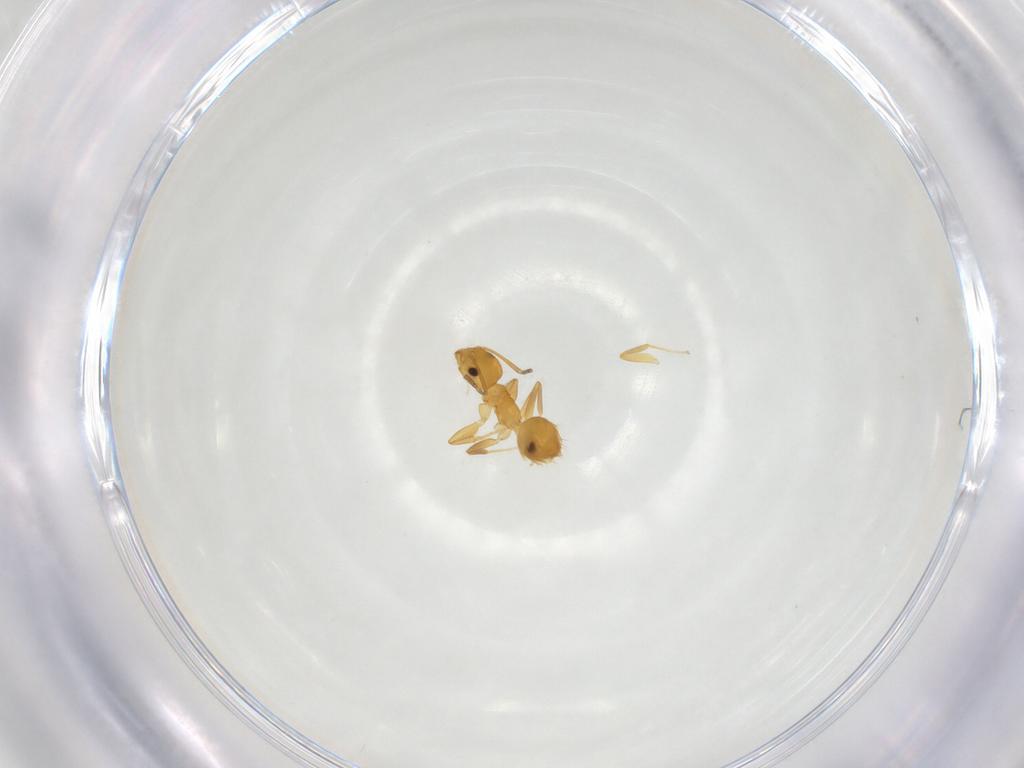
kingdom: Animalia
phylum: Arthropoda
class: Insecta
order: Hymenoptera
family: Formicidae
